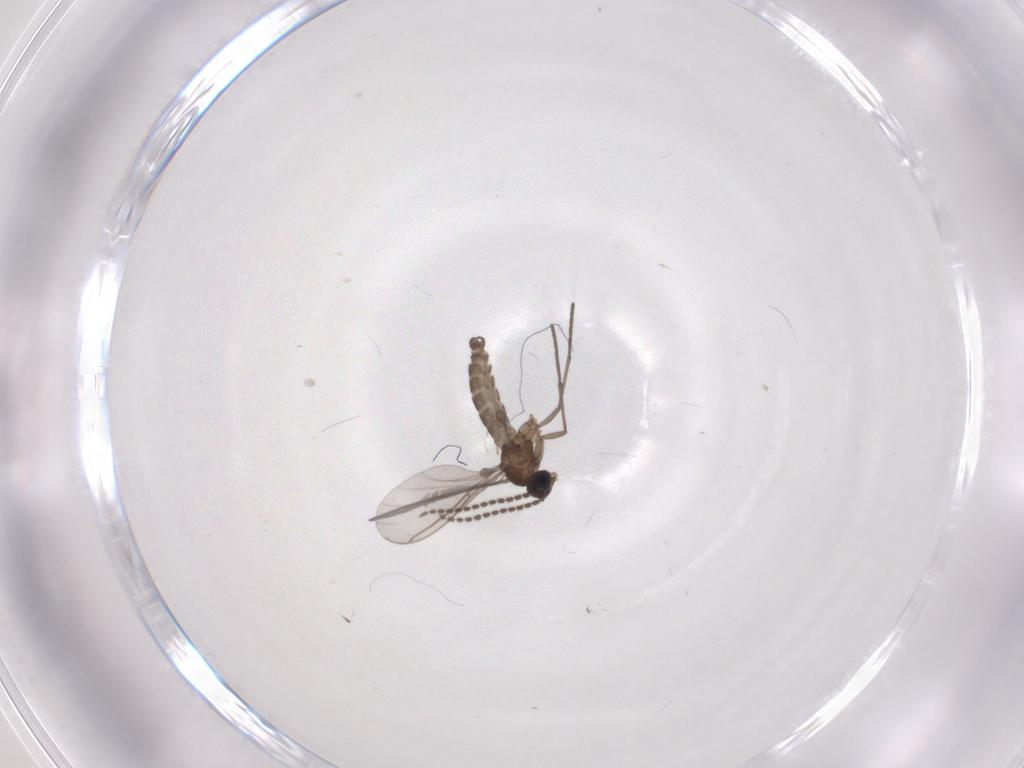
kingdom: Animalia
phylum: Arthropoda
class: Insecta
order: Diptera
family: Sciaridae
